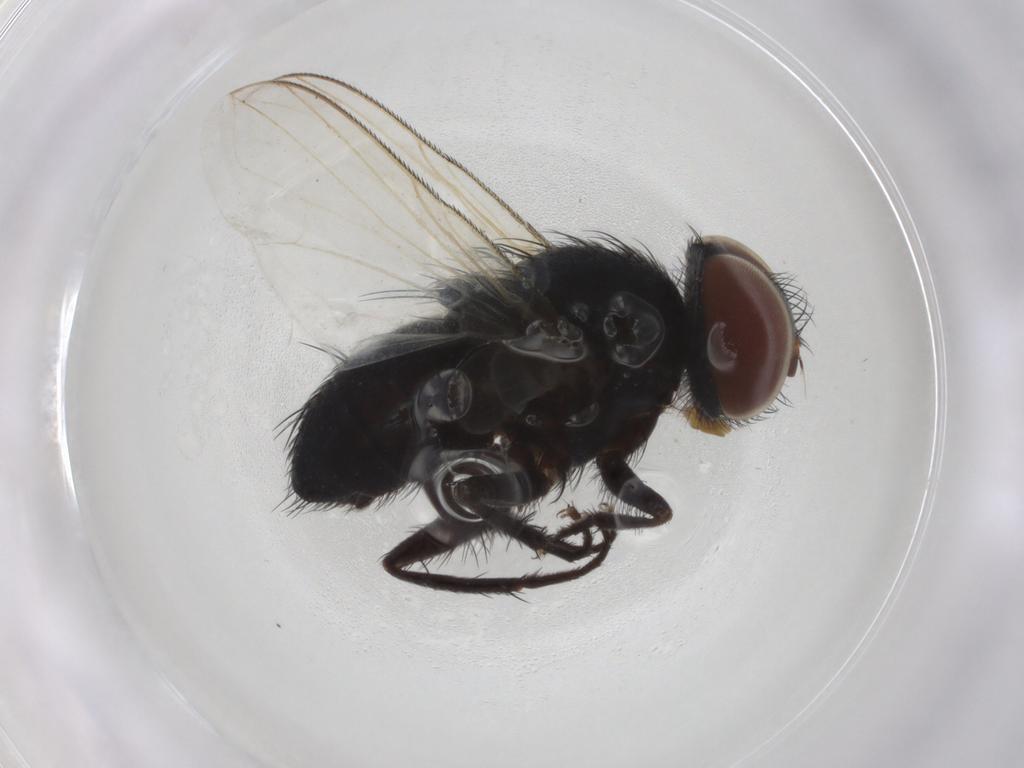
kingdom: Animalia
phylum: Arthropoda
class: Insecta
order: Diptera
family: Tachinidae
